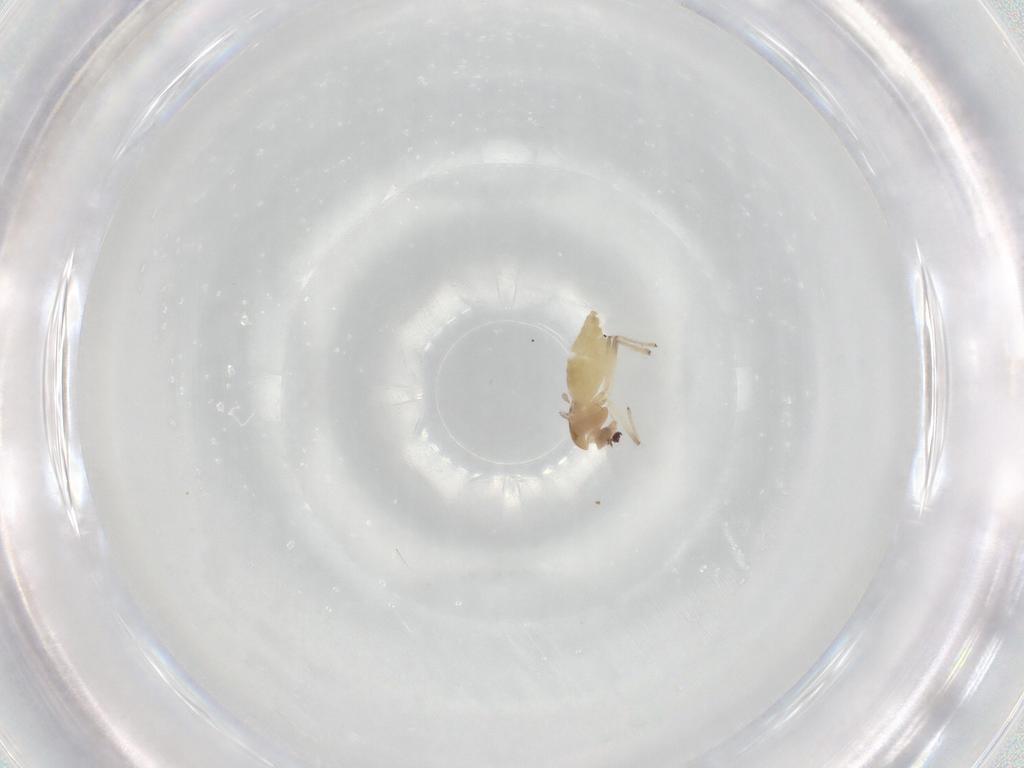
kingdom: Animalia
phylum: Arthropoda
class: Insecta
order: Diptera
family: Chironomidae
